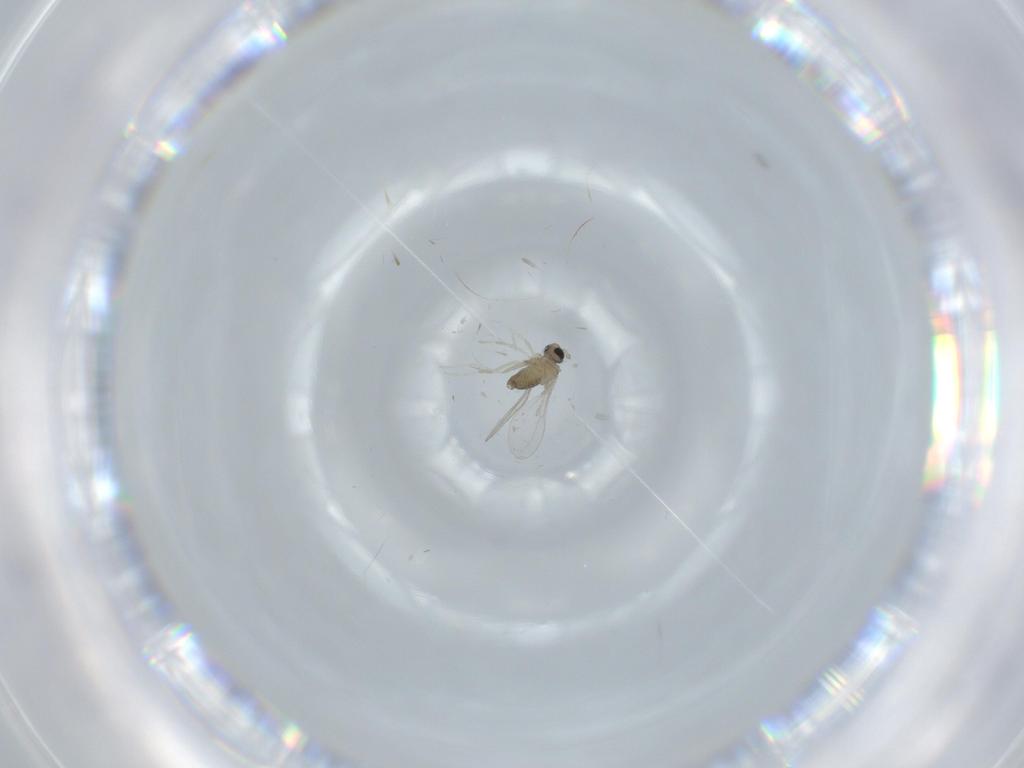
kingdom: Animalia
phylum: Arthropoda
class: Insecta
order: Diptera
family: Cecidomyiidae
